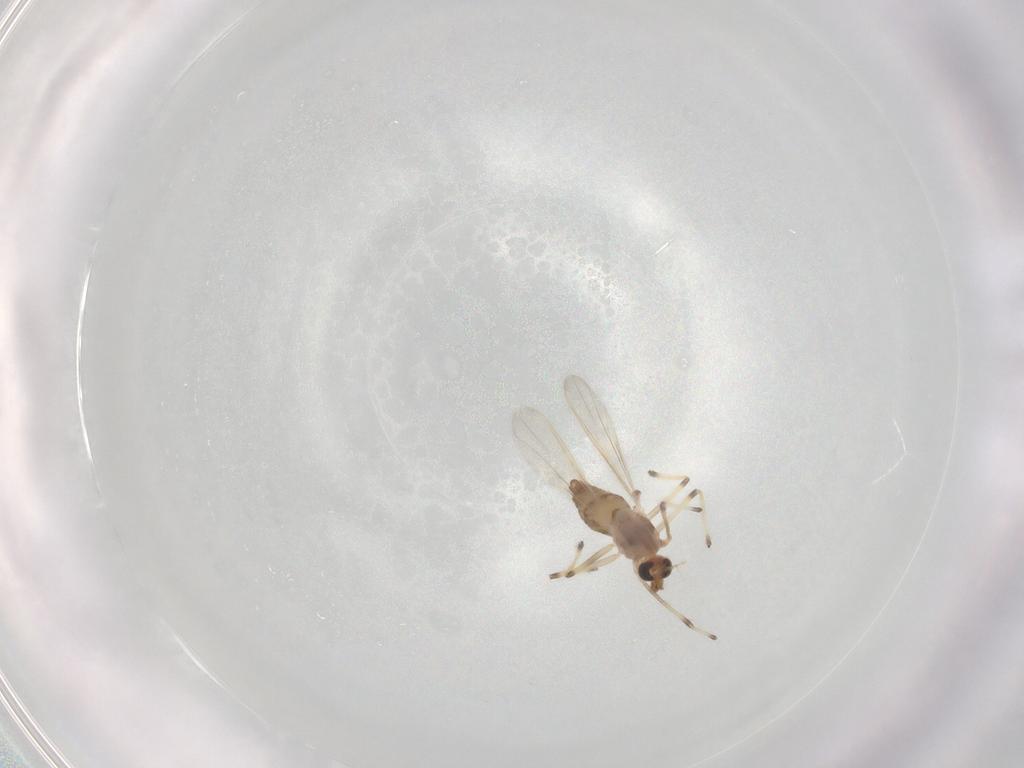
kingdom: Animalia
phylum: Arthropoda
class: Insecta
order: Diptera
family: Chironomidae
